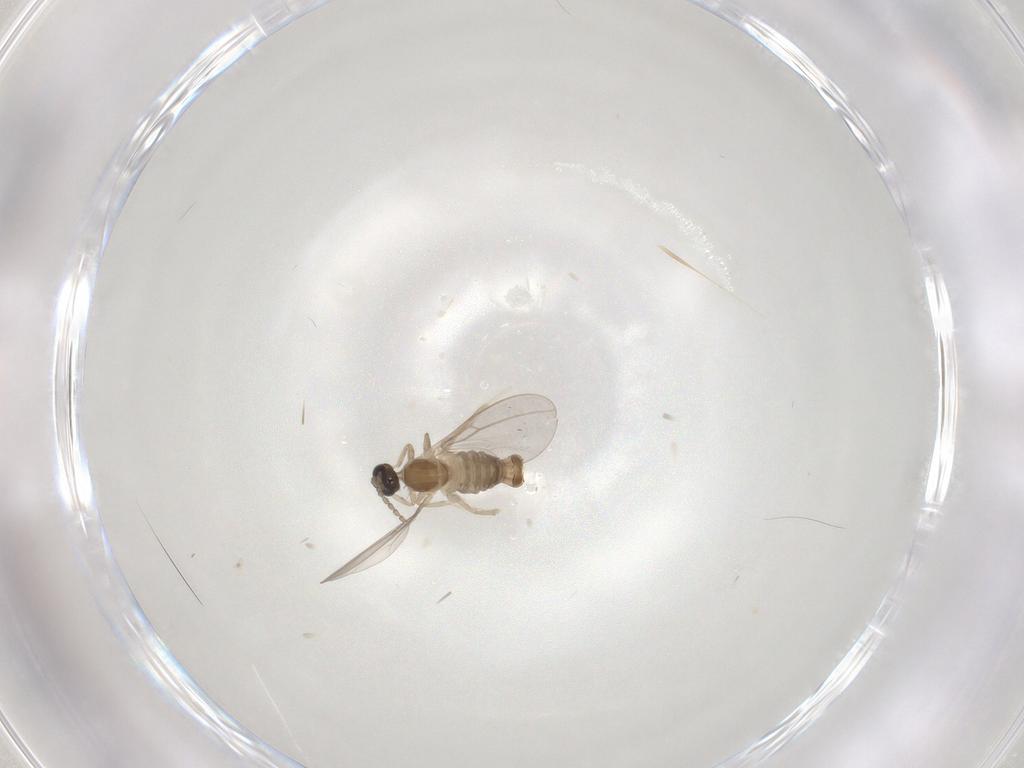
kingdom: Animalia
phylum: Arthropoda
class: Insecta
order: Diptera
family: Cecidomyiidae
